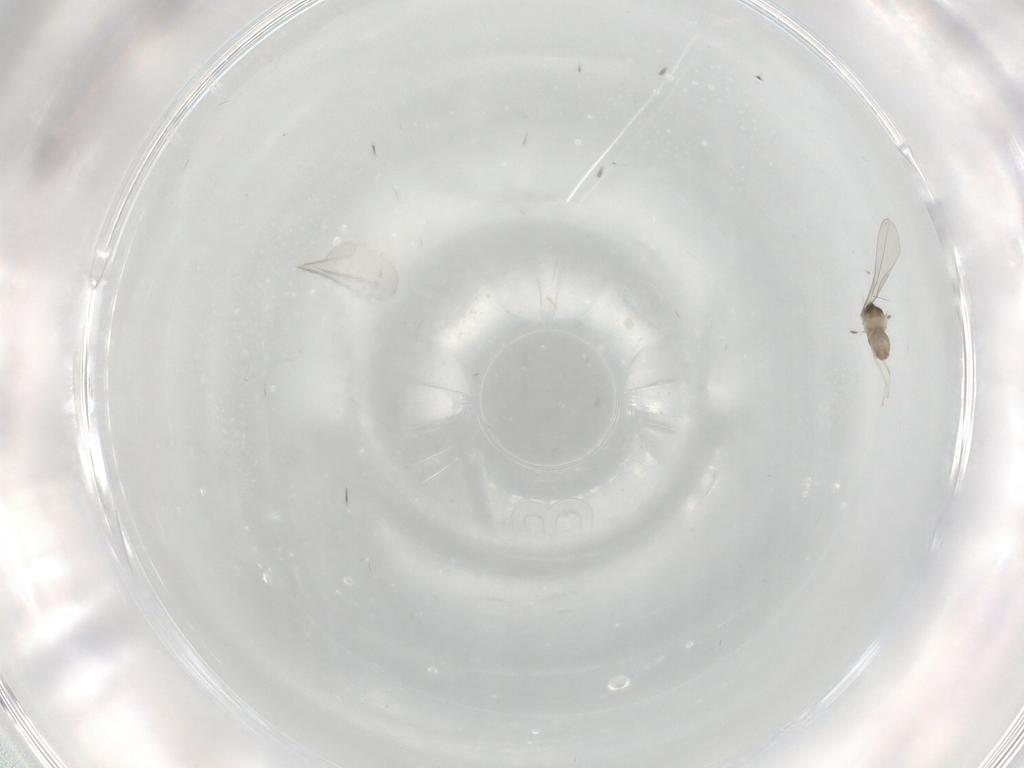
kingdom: Animalia
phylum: Arthropoda
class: Insecta
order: Diptera
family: Cecidomyiidae
